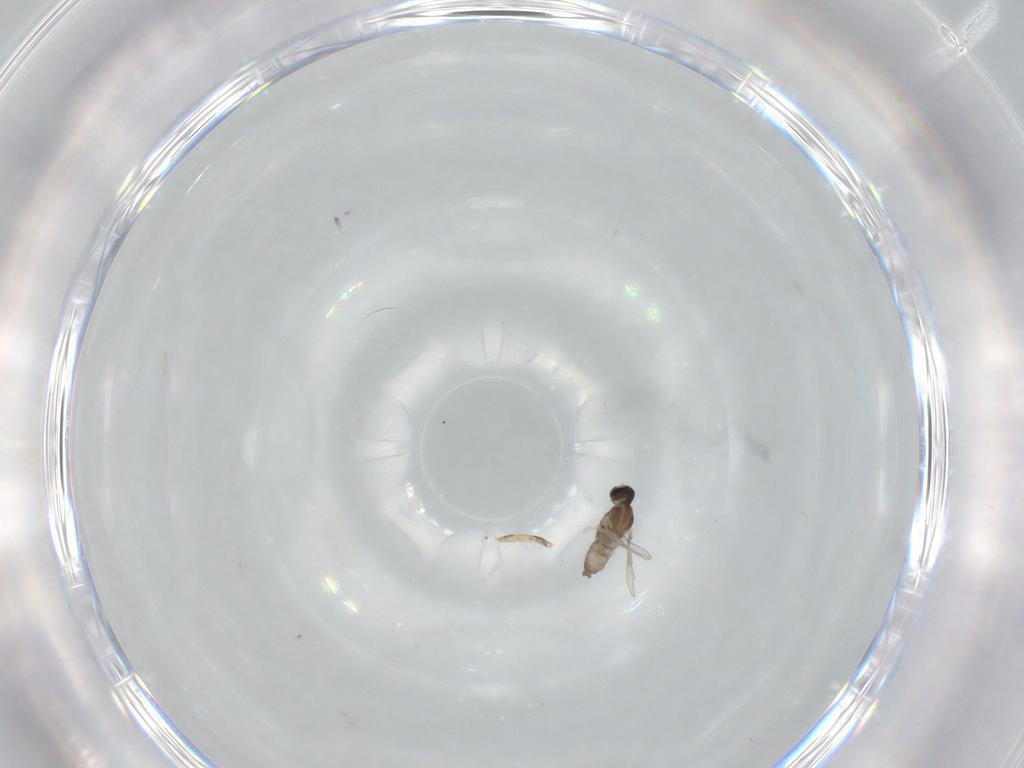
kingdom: Animalia
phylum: Arthropoda
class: Insecta
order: Diptera
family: Cecidomyiidae
